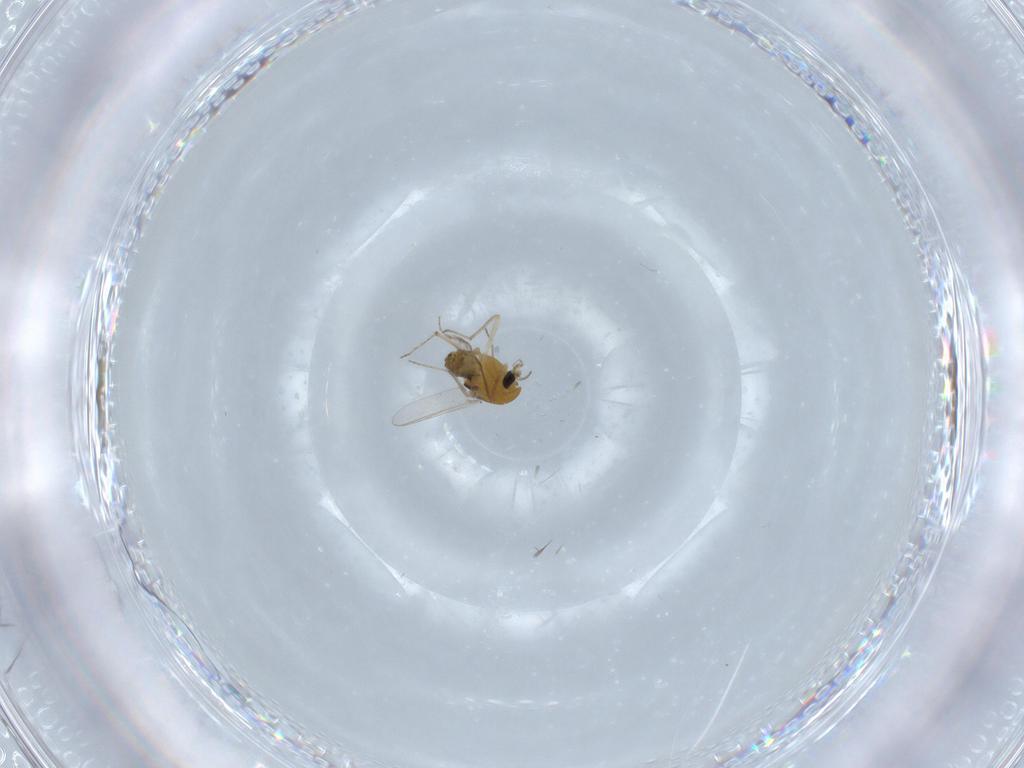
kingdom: Animalia
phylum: Arthropoda
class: Insecta
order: Diptera
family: Chironomidae
